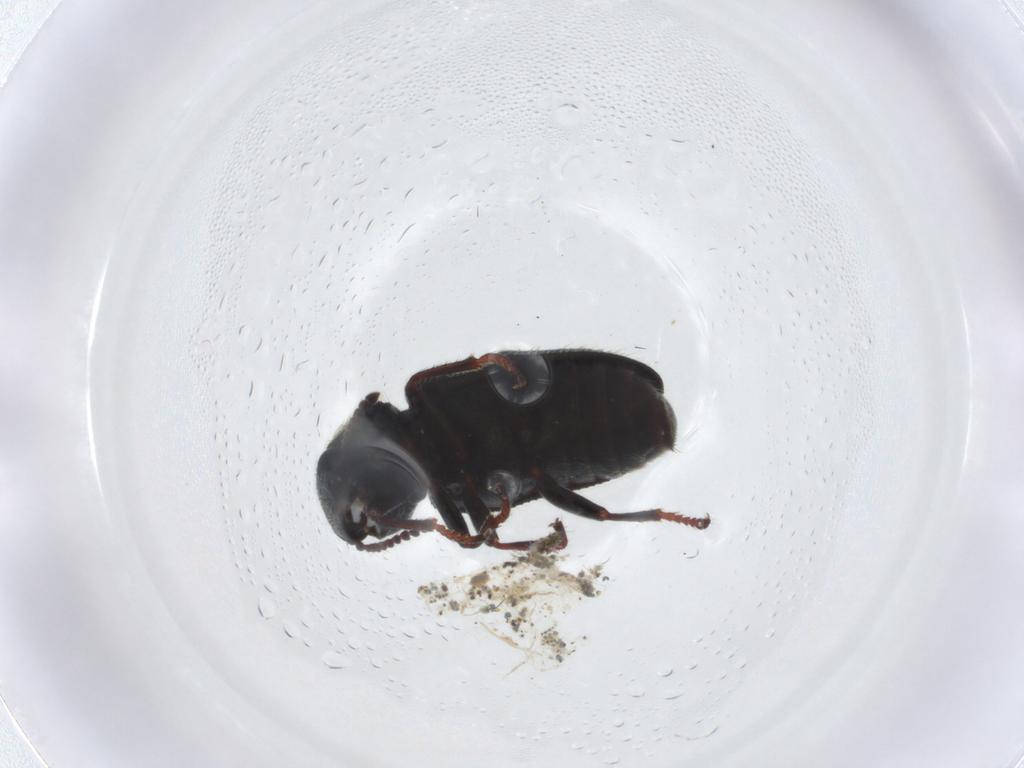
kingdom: Animalia
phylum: Arthropoda
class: Insecta
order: Coleoptera
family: Melyridae
